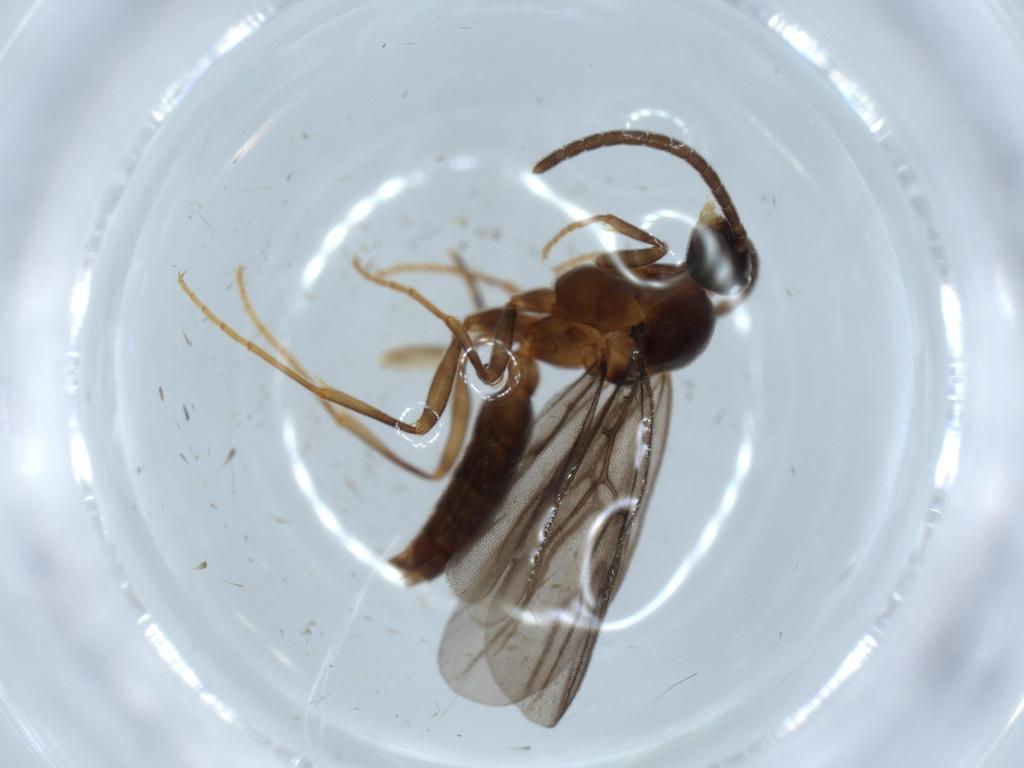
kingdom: Animalia
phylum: Arthropoda
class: Insecta
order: Hymenoptera
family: Formicidae
